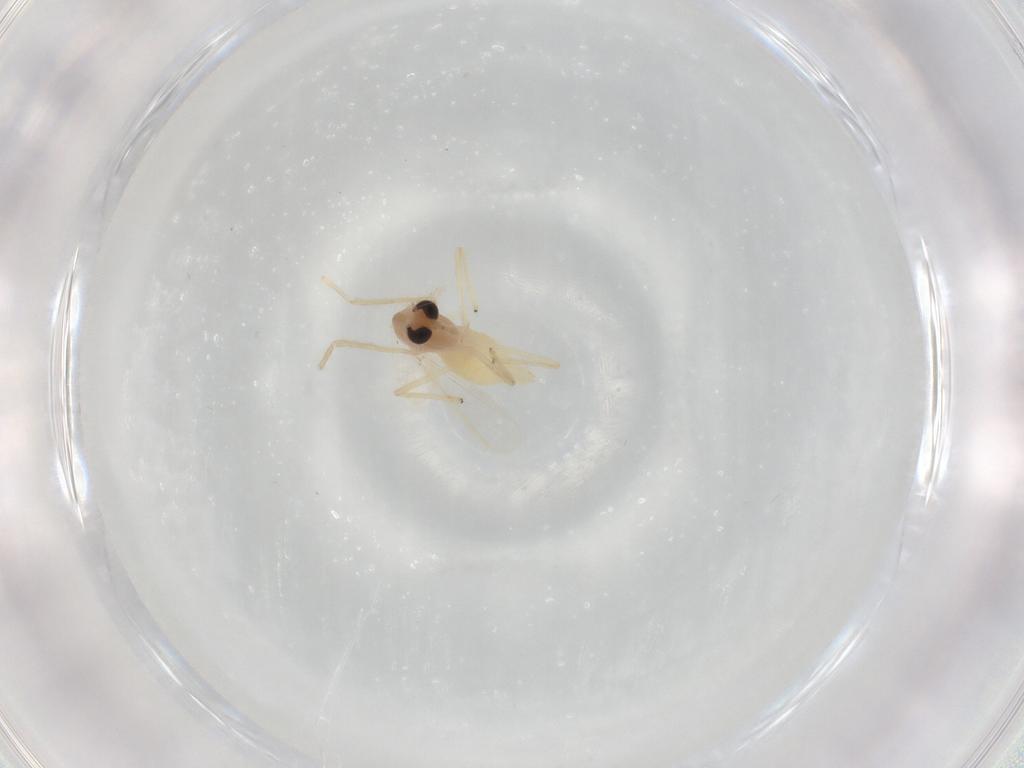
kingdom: Animalia
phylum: Arthropoda
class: Insecta
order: Diptera
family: Chironomidae
